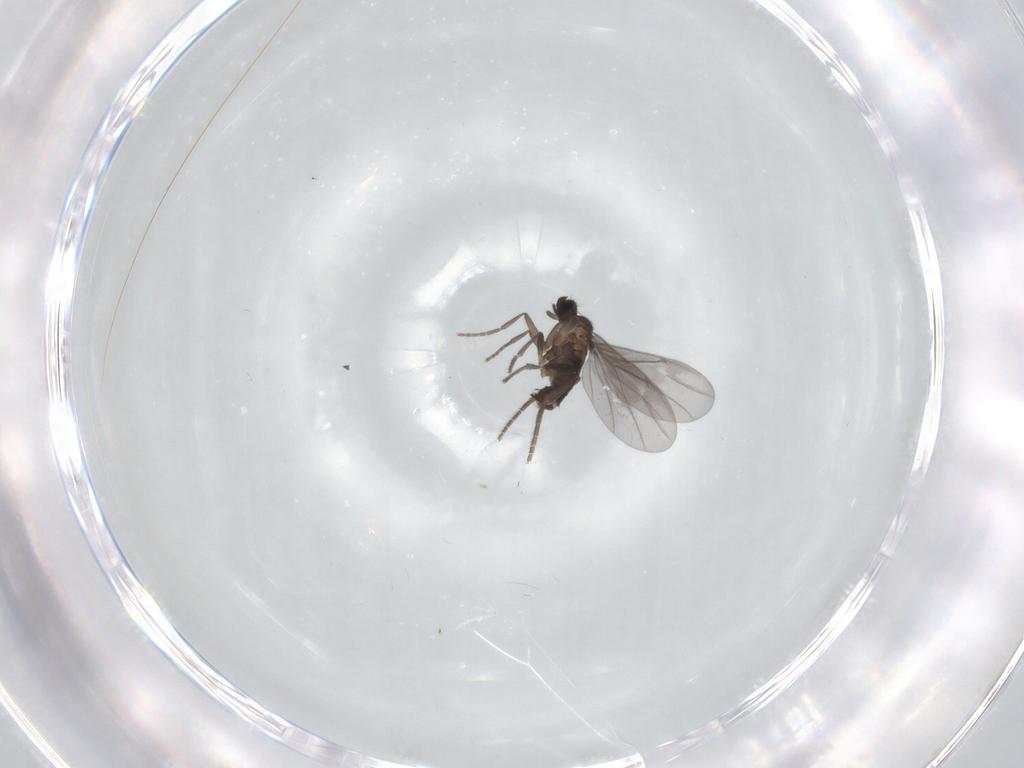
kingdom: Animalia
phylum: Arthropoda
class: Insecta
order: Diptera
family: Phoridae
